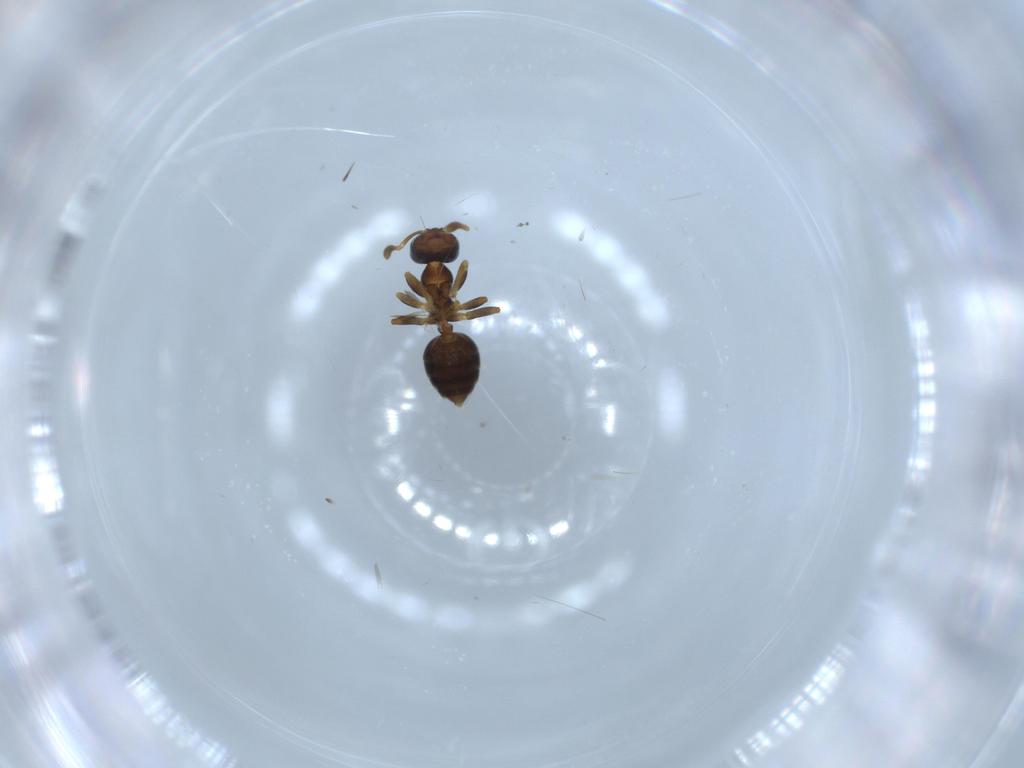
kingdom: Animalia
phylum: Arthropoda
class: Insecta
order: Hymenoptera
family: Formicidae
